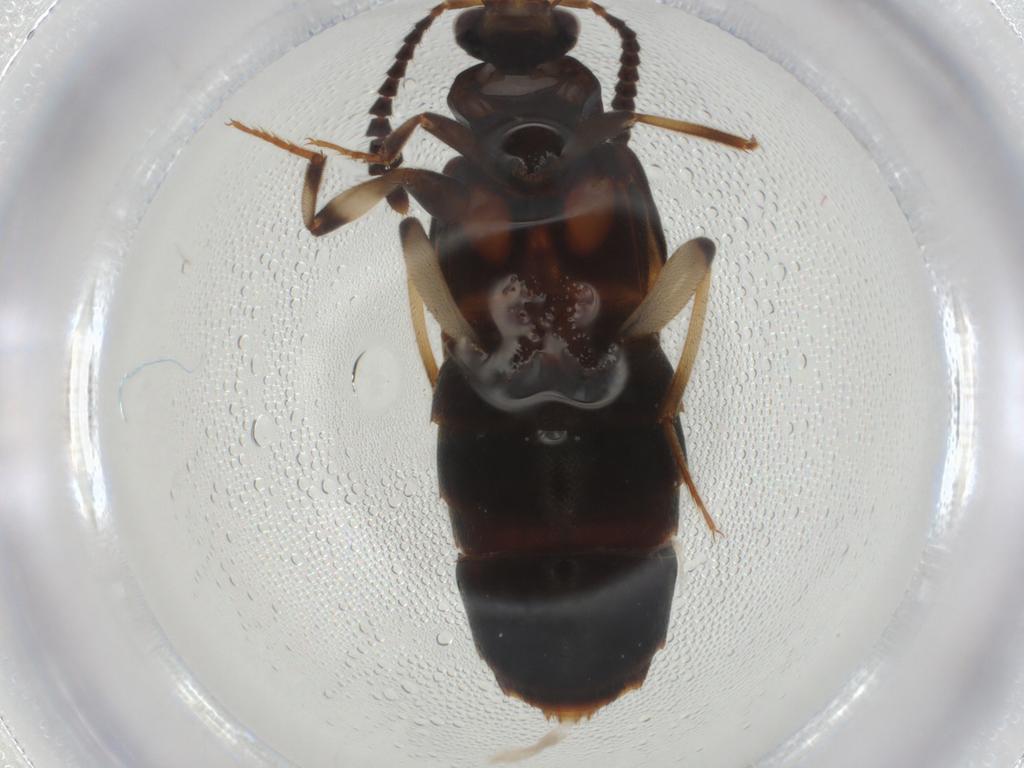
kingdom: Animalia
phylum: Arthropoda
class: Insecta
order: Coleoptera
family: Staphylinidae
